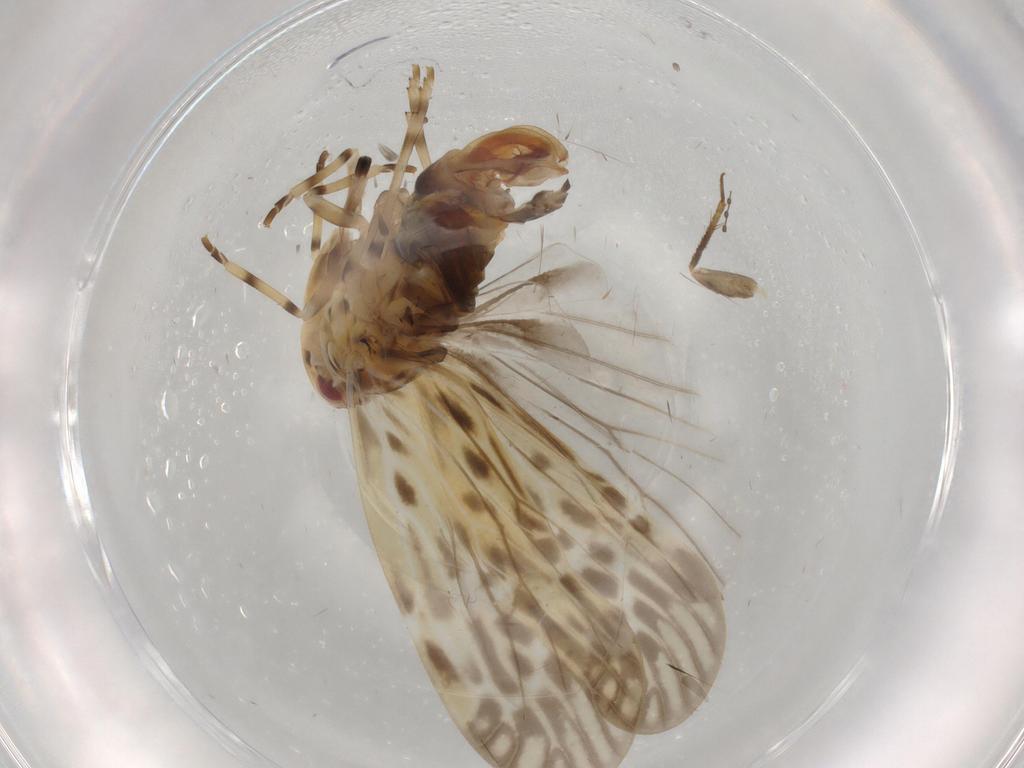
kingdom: Animalia
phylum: Arthropoda
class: Insecta
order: Hemiptera
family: Derbidae
